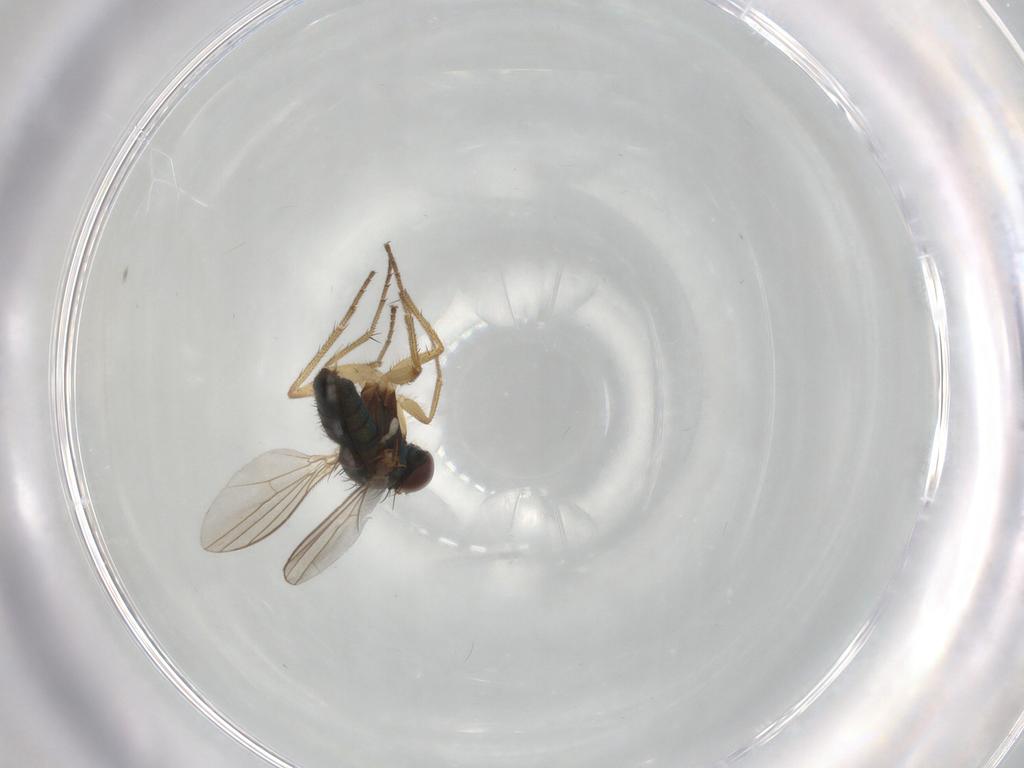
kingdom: Animalia
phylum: Arthropoda
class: Insecta
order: Diptera
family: Dolichopodidae
